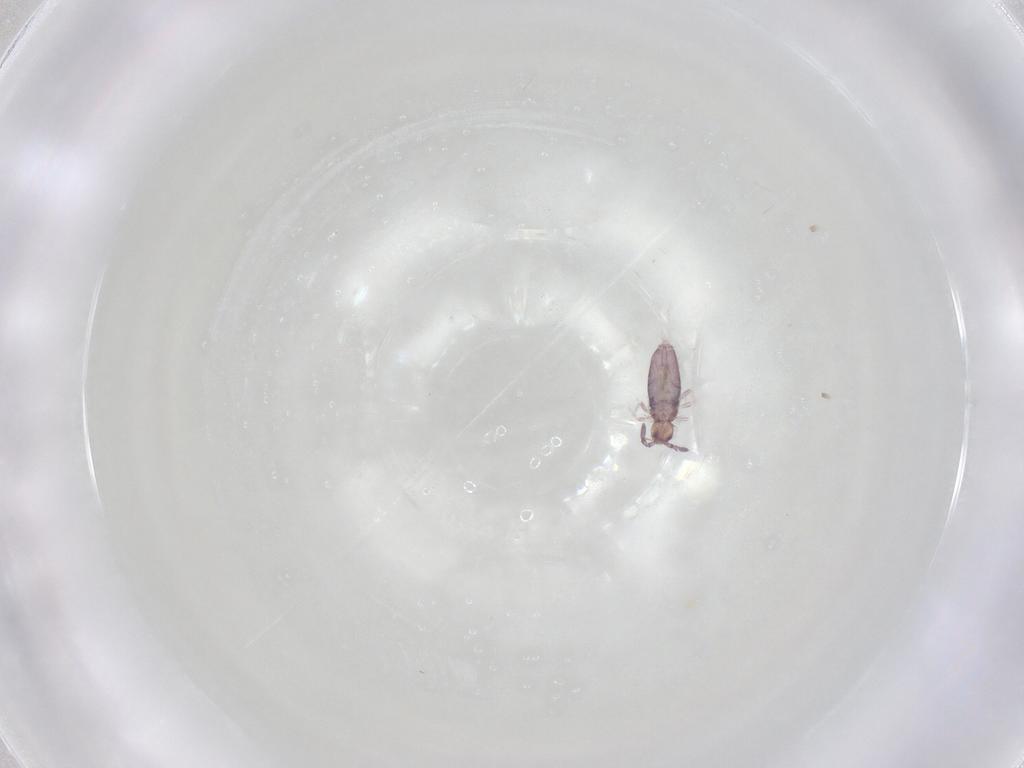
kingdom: Animalia
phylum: Arthropoda
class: Collembola
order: Entomobryomorpha
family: Entomobryidae
